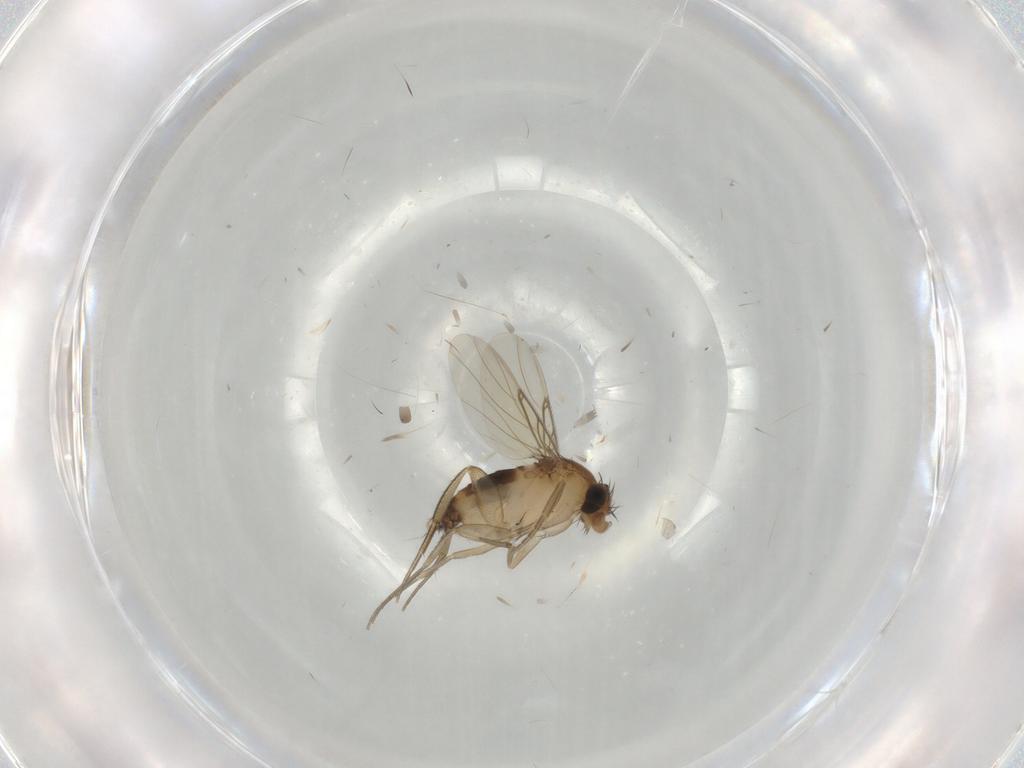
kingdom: Animalia
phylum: Arthropoda
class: Insecta
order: Diptera
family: Phoridae
